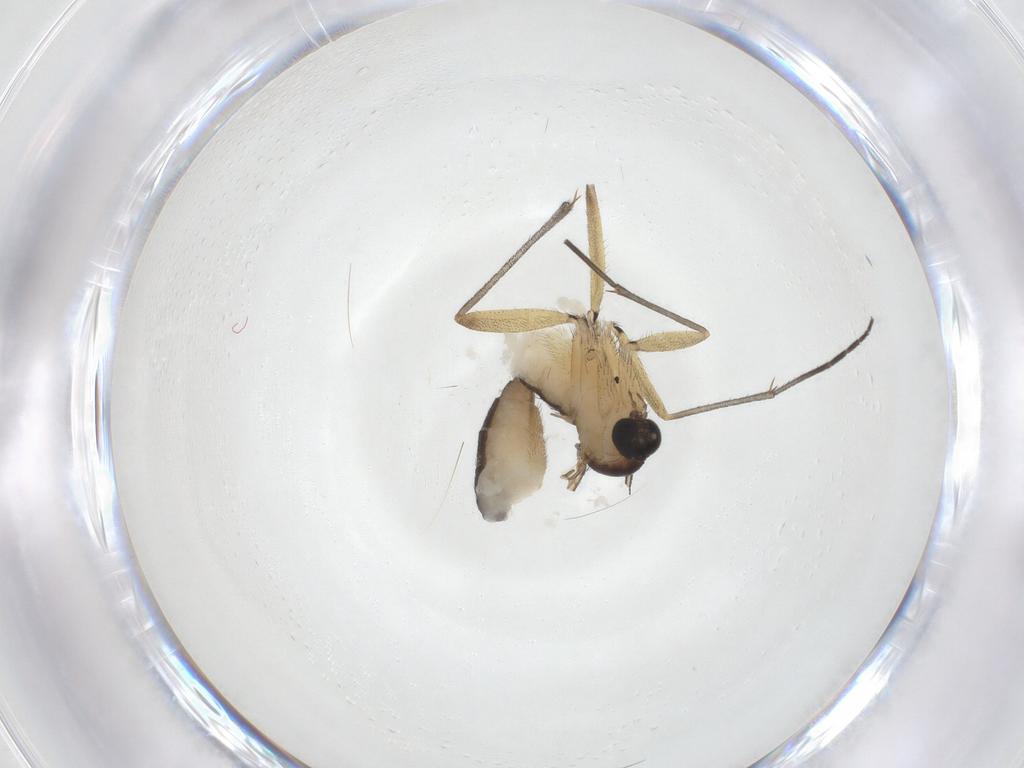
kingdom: Animalia
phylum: Arthropoda
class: Insecta
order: Diptera
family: Sciaridae
